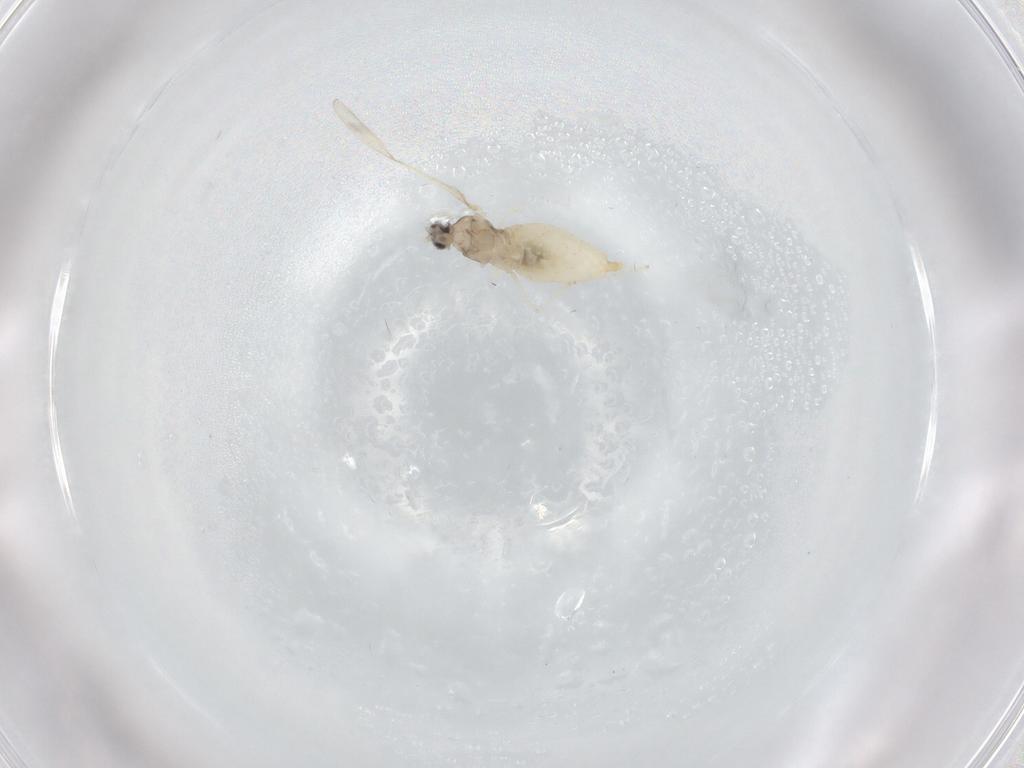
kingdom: Animalia
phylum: Arthropoda
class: Insecta
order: Diptera
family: Cecidomyiidae
